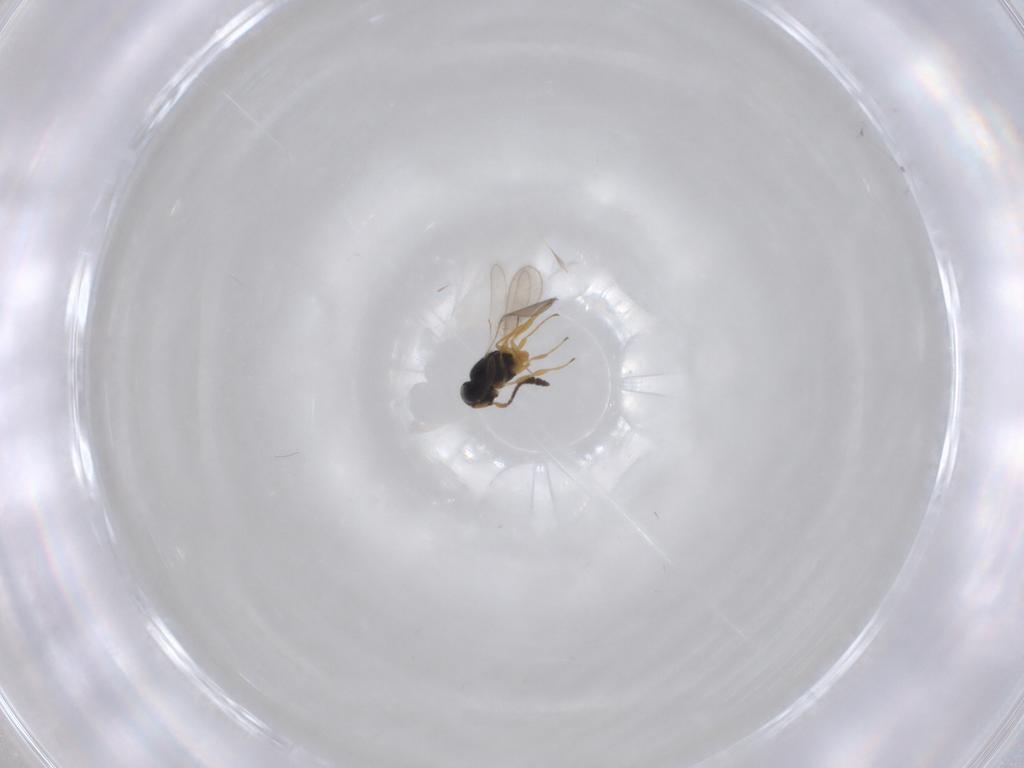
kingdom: Animalia
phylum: Arthropoda
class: Insecta
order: Hymenoptera
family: Scelionidae
